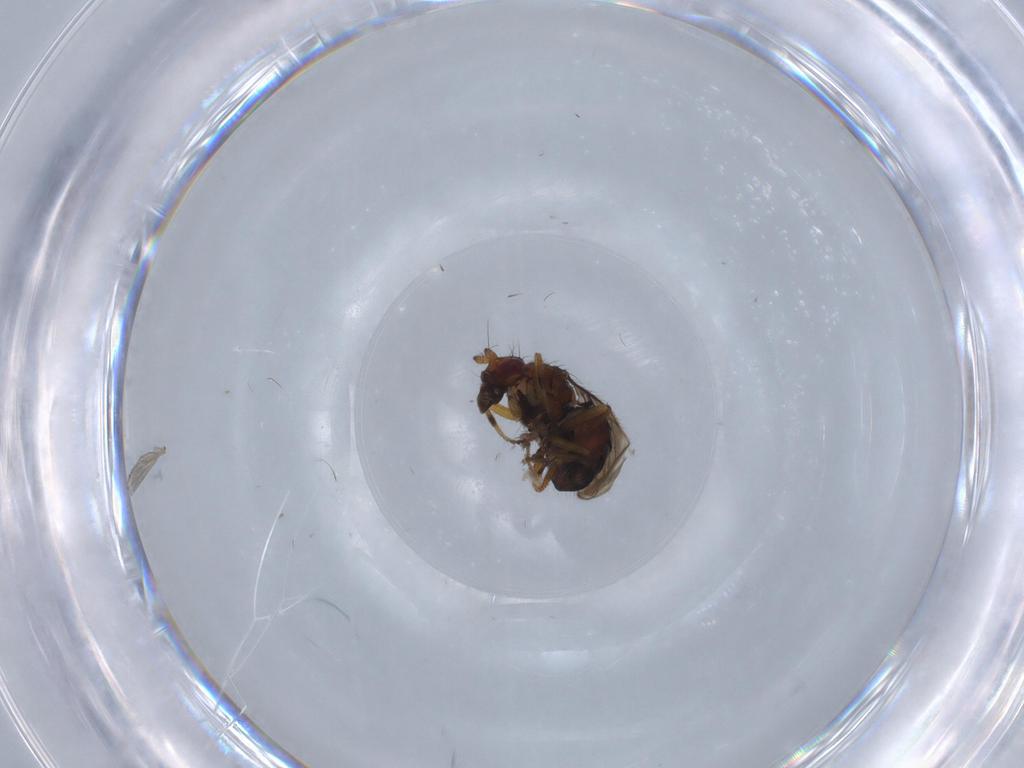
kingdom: Animalia
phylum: Arthropoda
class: Insecta
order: Diptera
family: Sphaeroceridae
